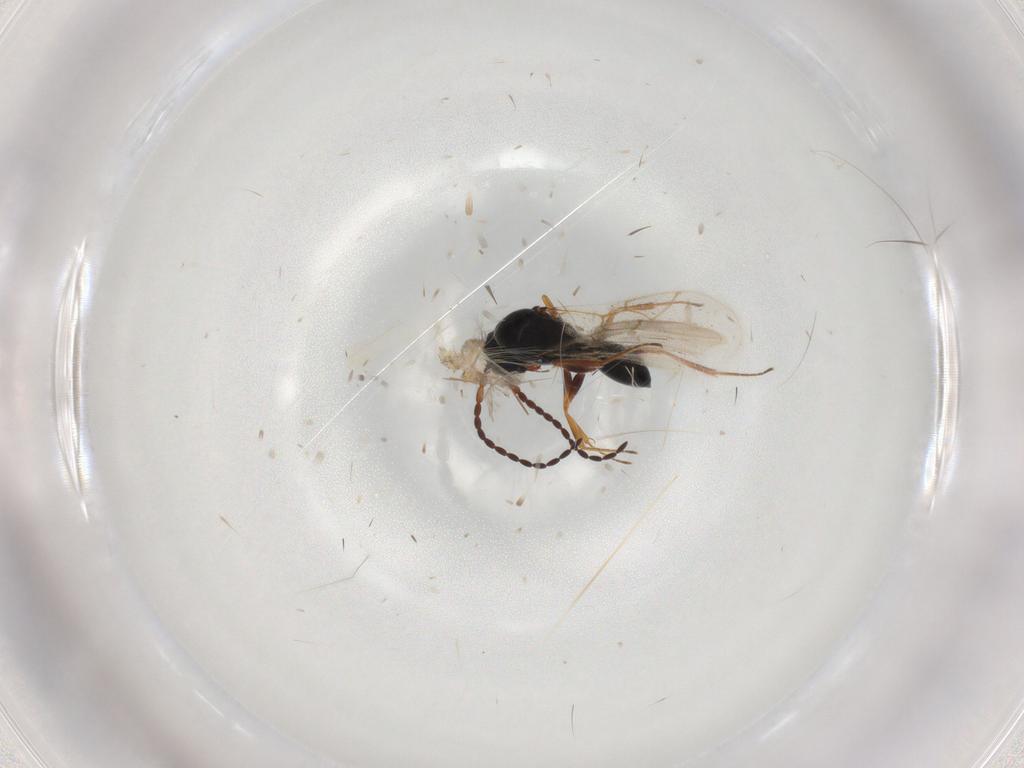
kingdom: Animalia
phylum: Arthropoda
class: Insecta
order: Hymenoptera
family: Figitidae
